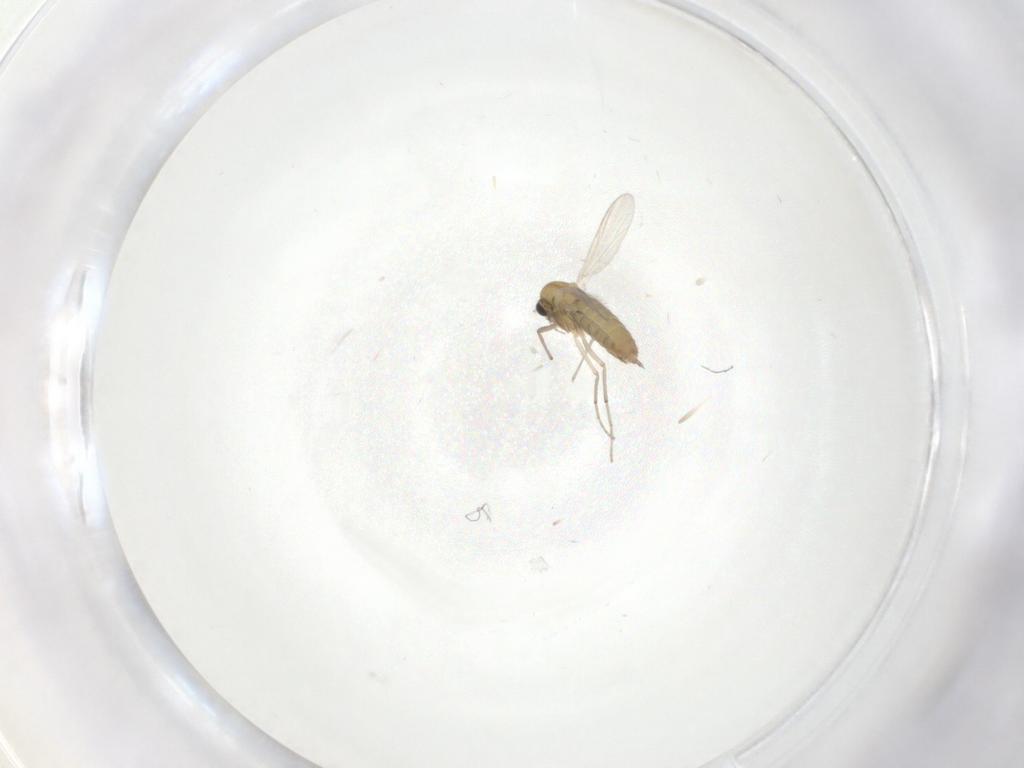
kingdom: Animalia
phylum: Arthropoda
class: Insecta
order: Diptera
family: Chironomidae
